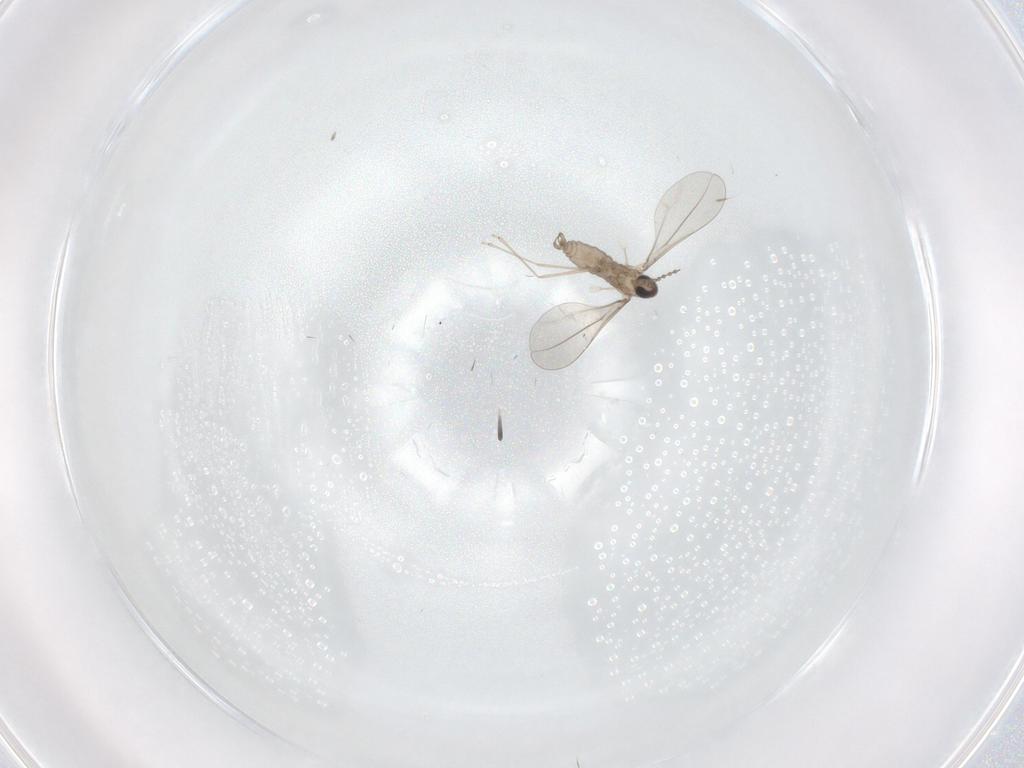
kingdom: Animalia
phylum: Arthropoda
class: Insecta
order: Diptera
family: Cecidomyiidae
